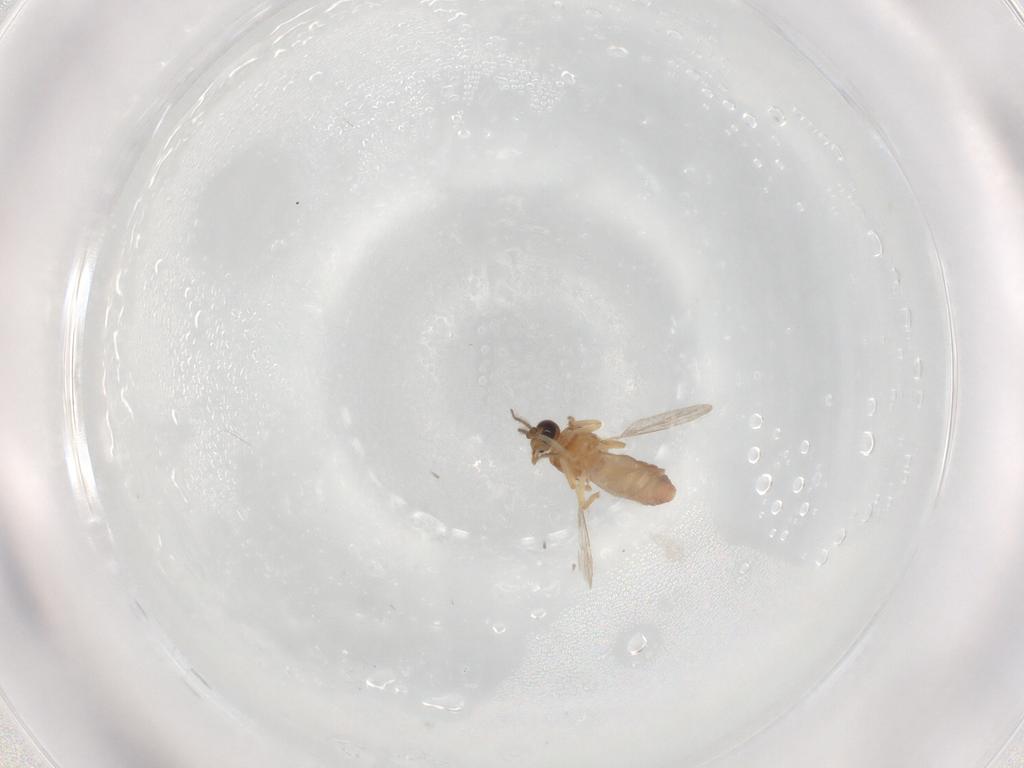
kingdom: Animalia
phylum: Arthropoda
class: Insecta
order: Diptera
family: Ceratopogonidae
